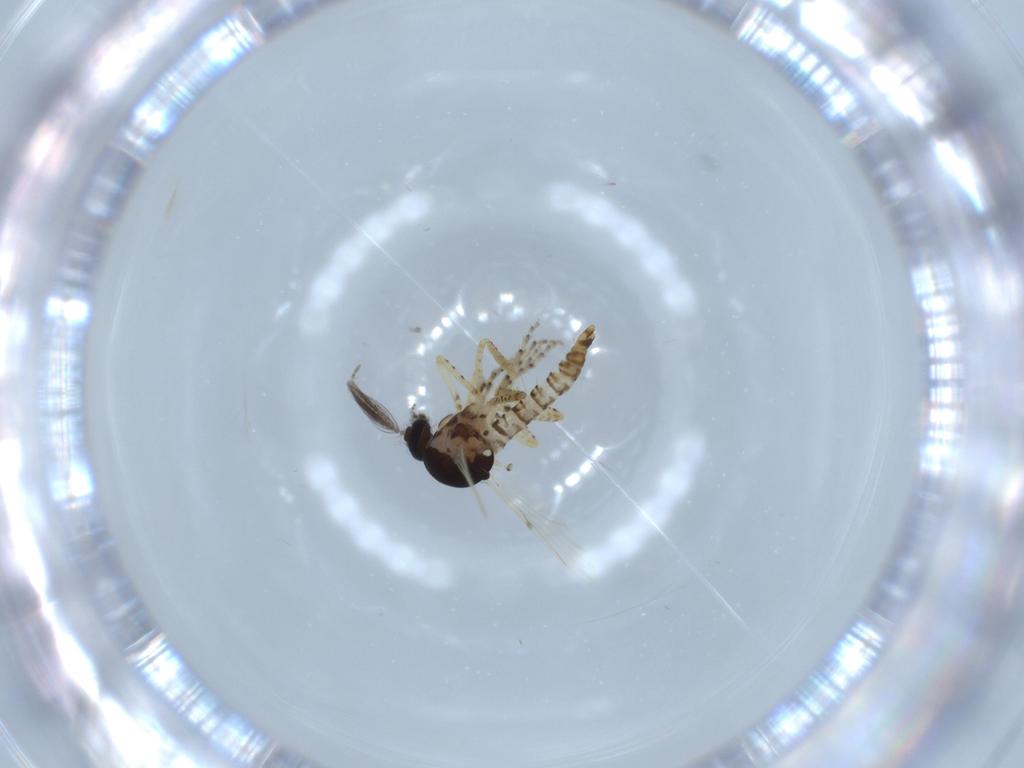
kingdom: Animalia
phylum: Arthropoda
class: Insecta
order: Diptera
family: Ceratopogonidae
